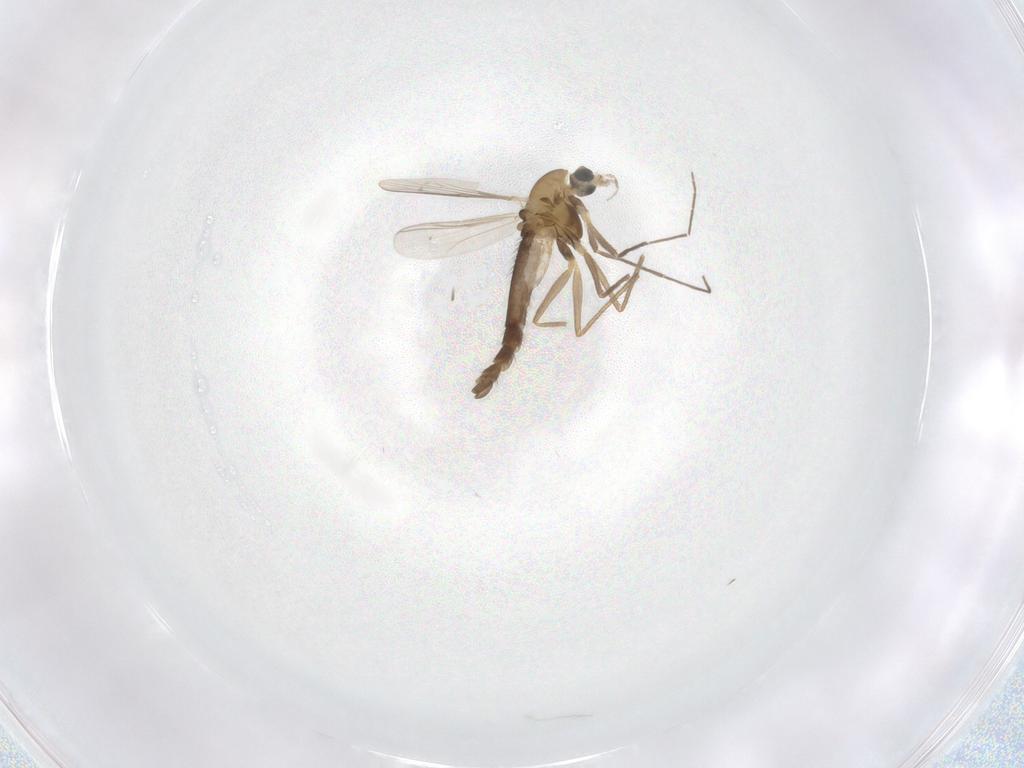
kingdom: Animalia
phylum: Arthropoda
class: Insecta
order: Diptera
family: Chironomidae
